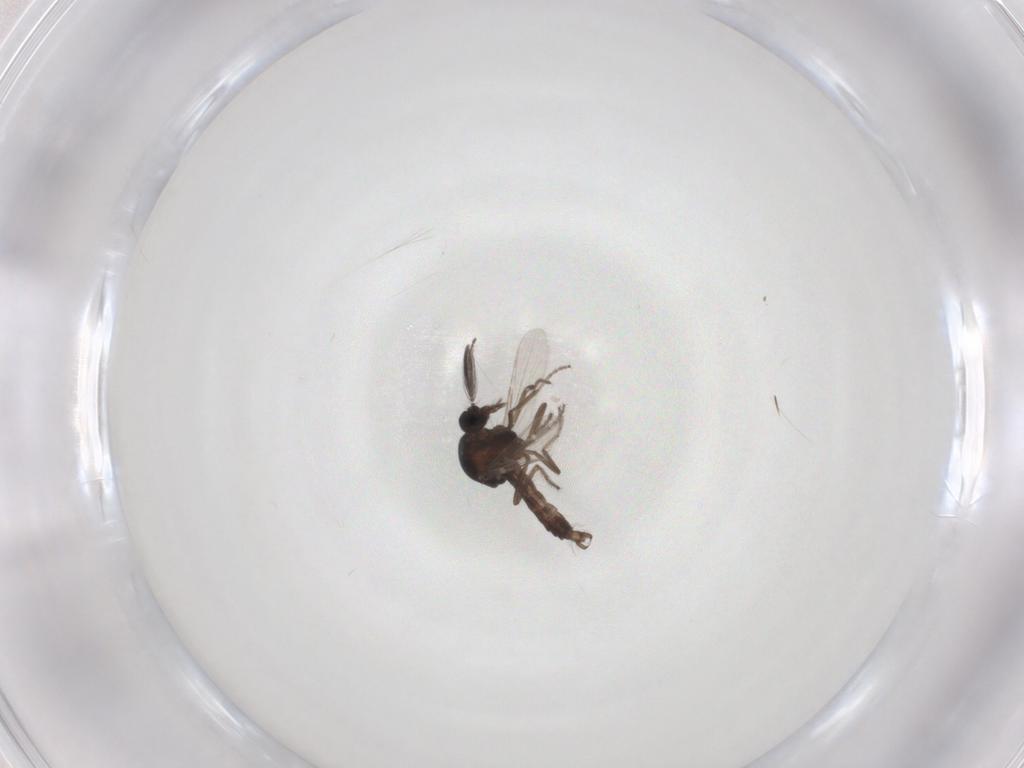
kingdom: Animalia
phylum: Arthropoda
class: Insecta
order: Diptera
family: Ceratopogonidae
